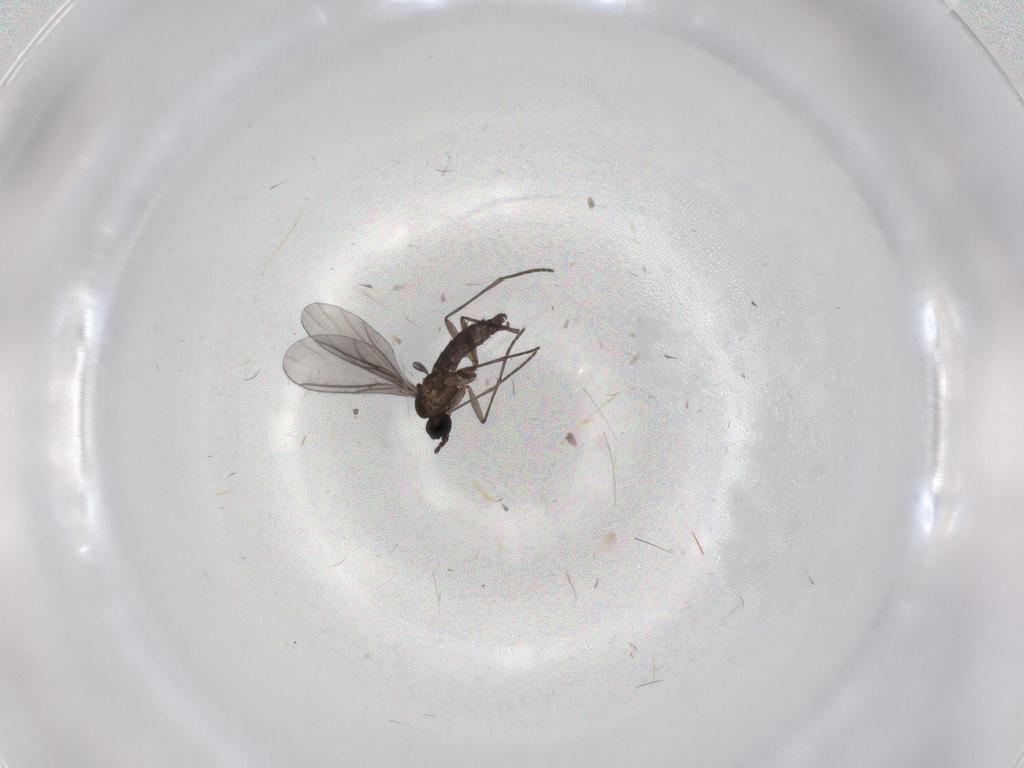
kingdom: Animalia
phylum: Arthropoda
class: Insecta
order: Diptera
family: Cecidomyiidae
